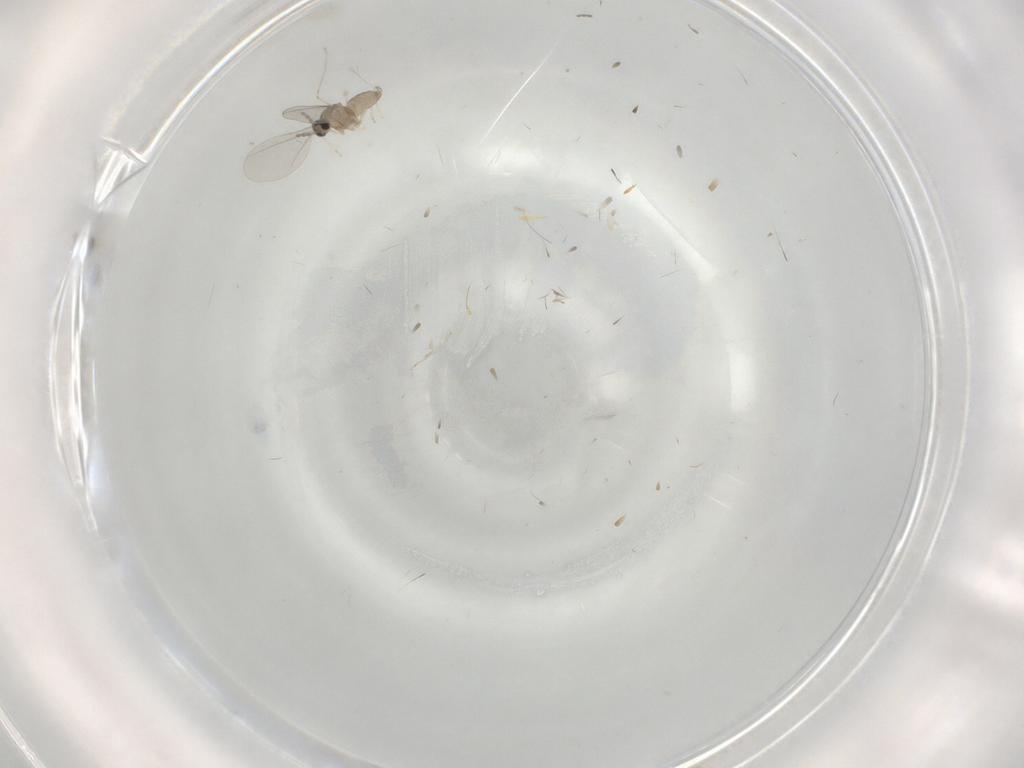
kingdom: Animalia
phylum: Arthropoda
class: Insecta
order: Diptera
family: Cecidomyiidae
